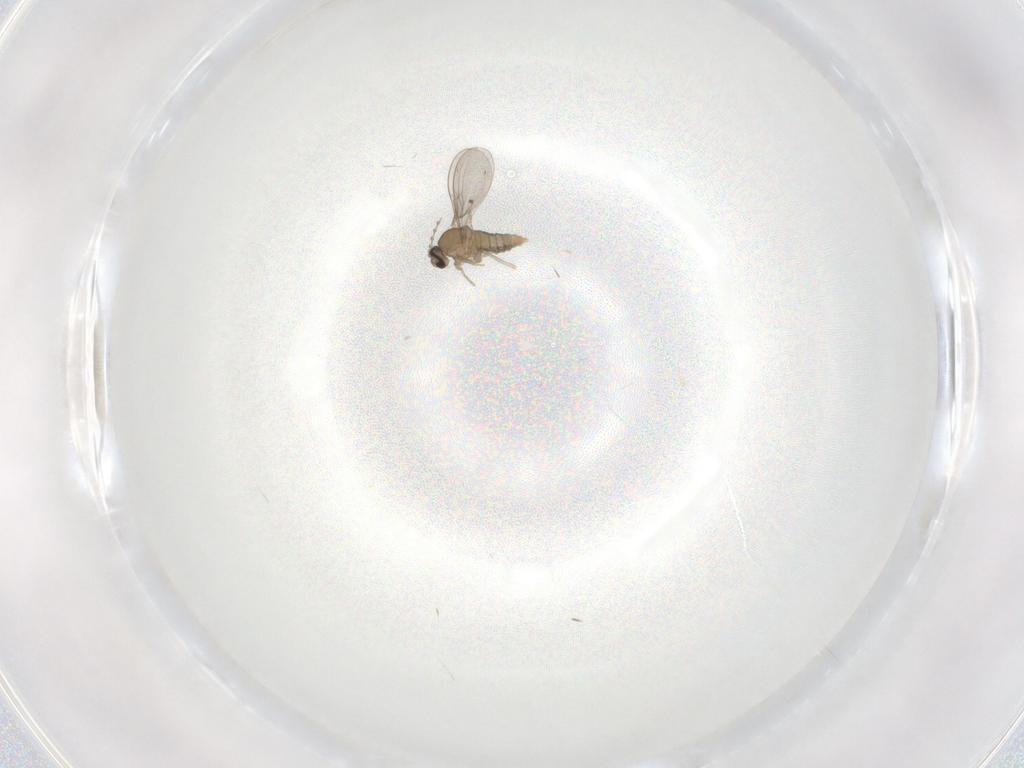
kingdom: Animalia
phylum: Arthropoda
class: Insecta
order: Diptera
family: Cecidomyiidae
